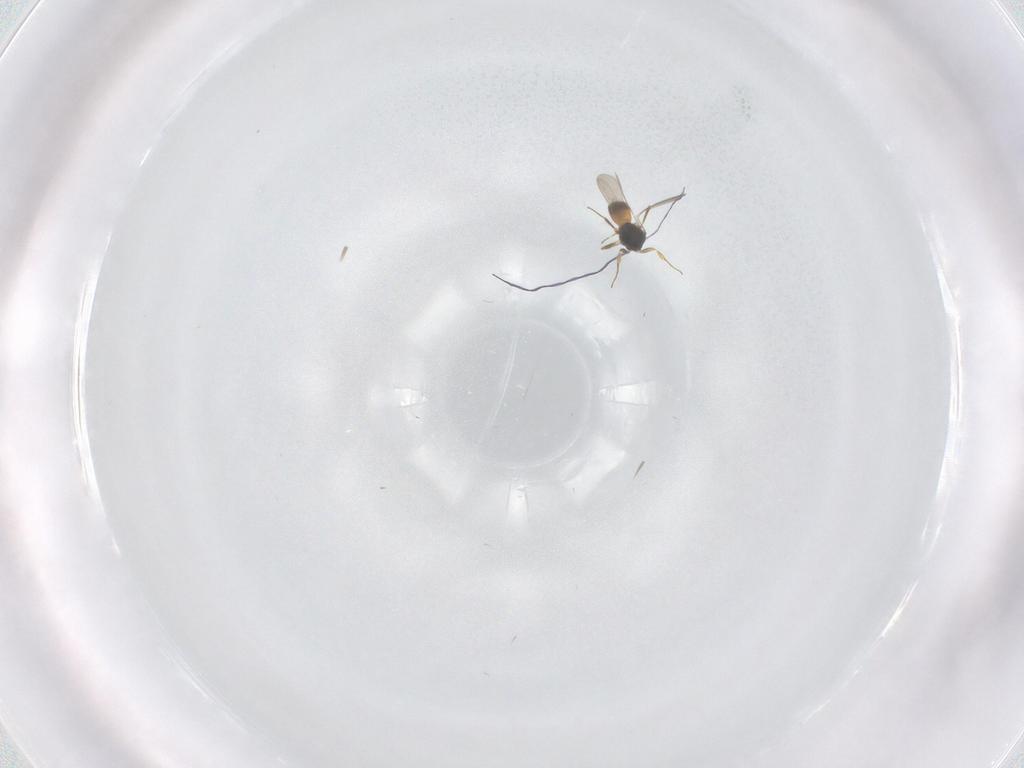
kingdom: Animalia
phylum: Arthropoda
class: Insecta
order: Hymenoptera
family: Scelionidae
